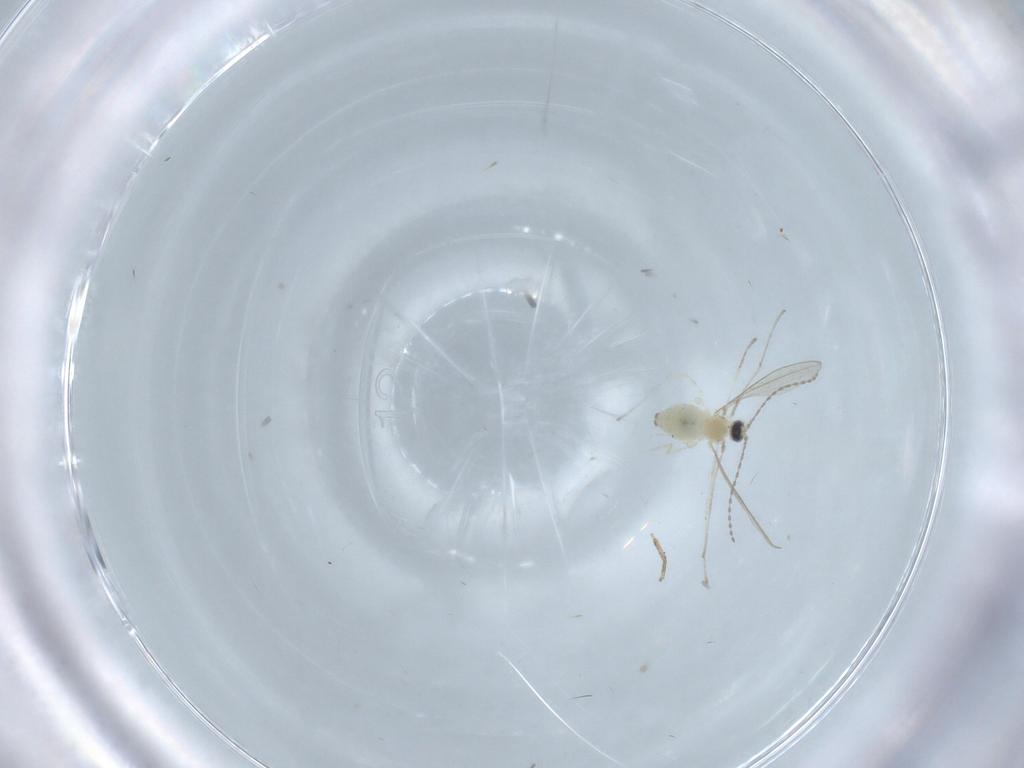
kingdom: Animalia
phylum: Arthropoda
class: Insecta
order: Diptera
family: Cecidomyiidae
